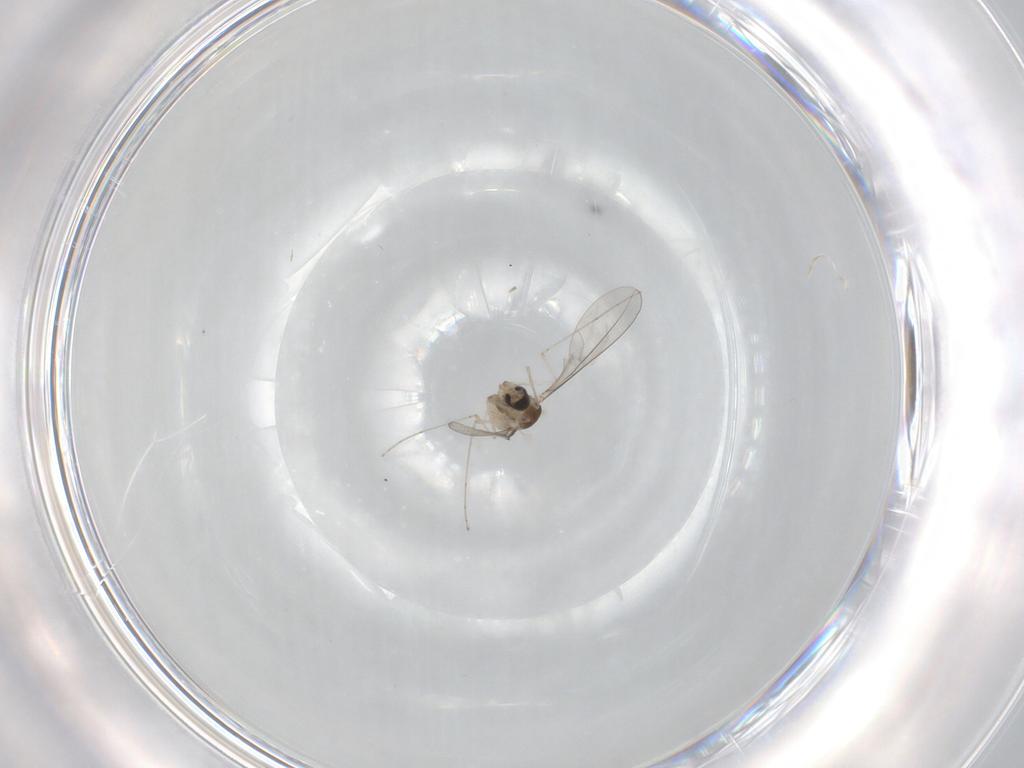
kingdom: Animalia
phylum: Arthropoda
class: Insecta
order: Diptera
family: Cecidomyiidae
